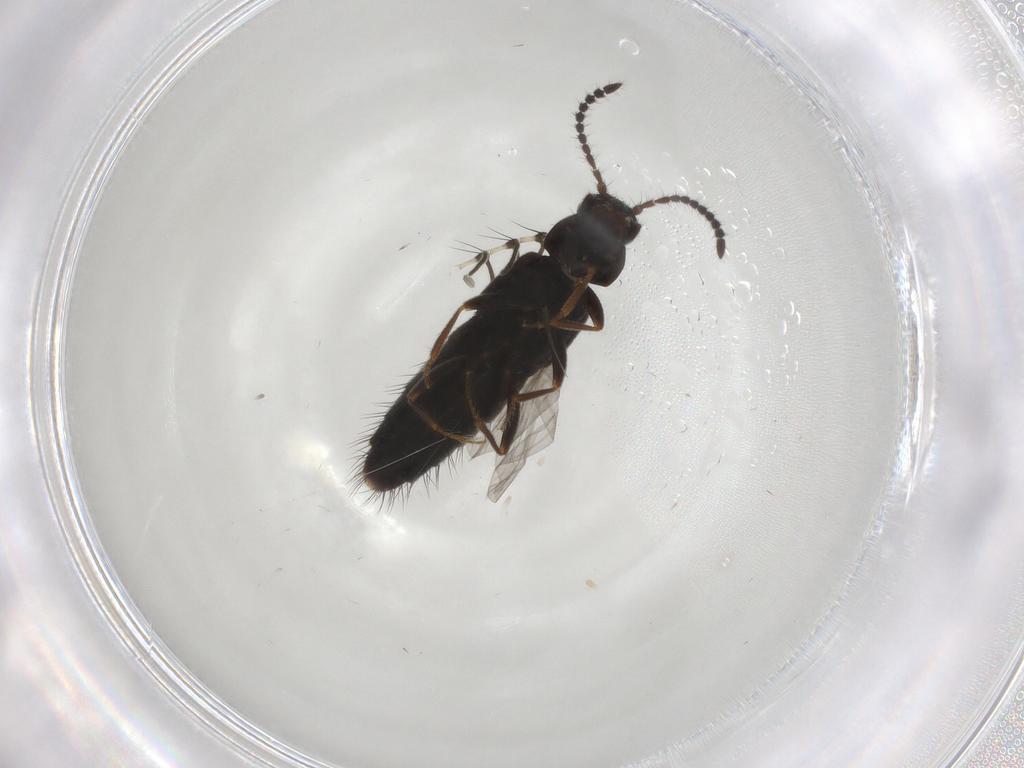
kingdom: Animalia
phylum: Arthropoda
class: Insecta
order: Coleoptera
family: Staphylinidae
